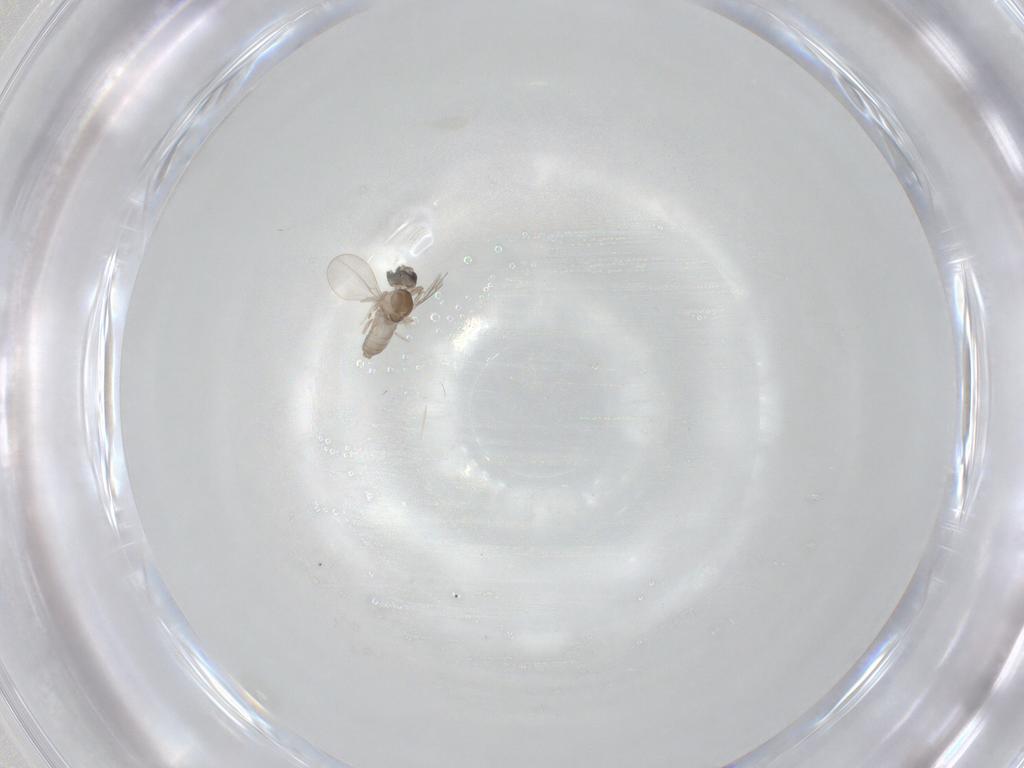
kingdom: Animalia
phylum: Arthropoda
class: Insecta
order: Diptera
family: Cecidomyiidae
